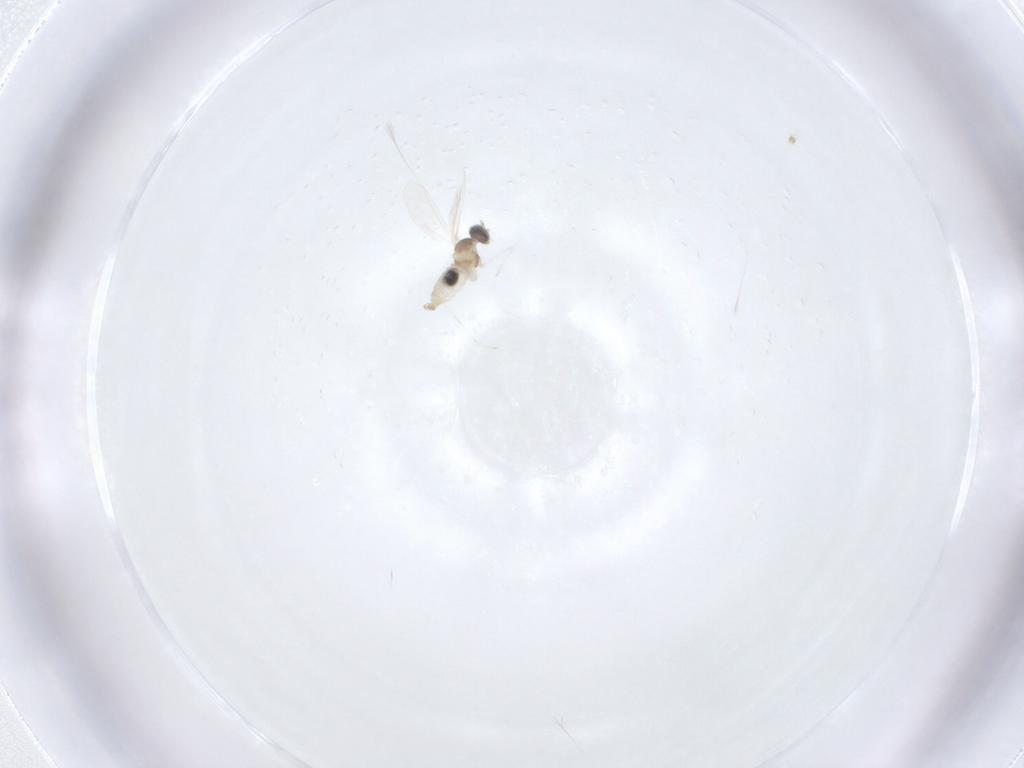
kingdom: Animalia
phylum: Arthropoda
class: Insecta
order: Diptera
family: Cecidomyiidae
